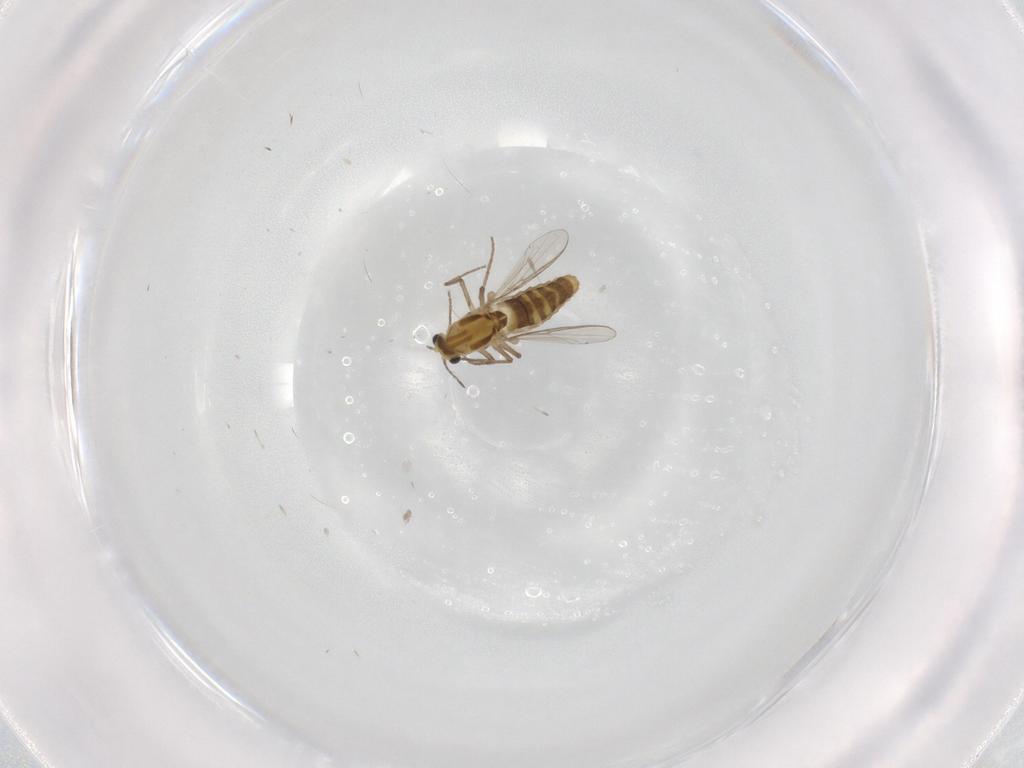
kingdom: Animalia
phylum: Arthropoda
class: Insecta
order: Diptera
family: Chironomidae
